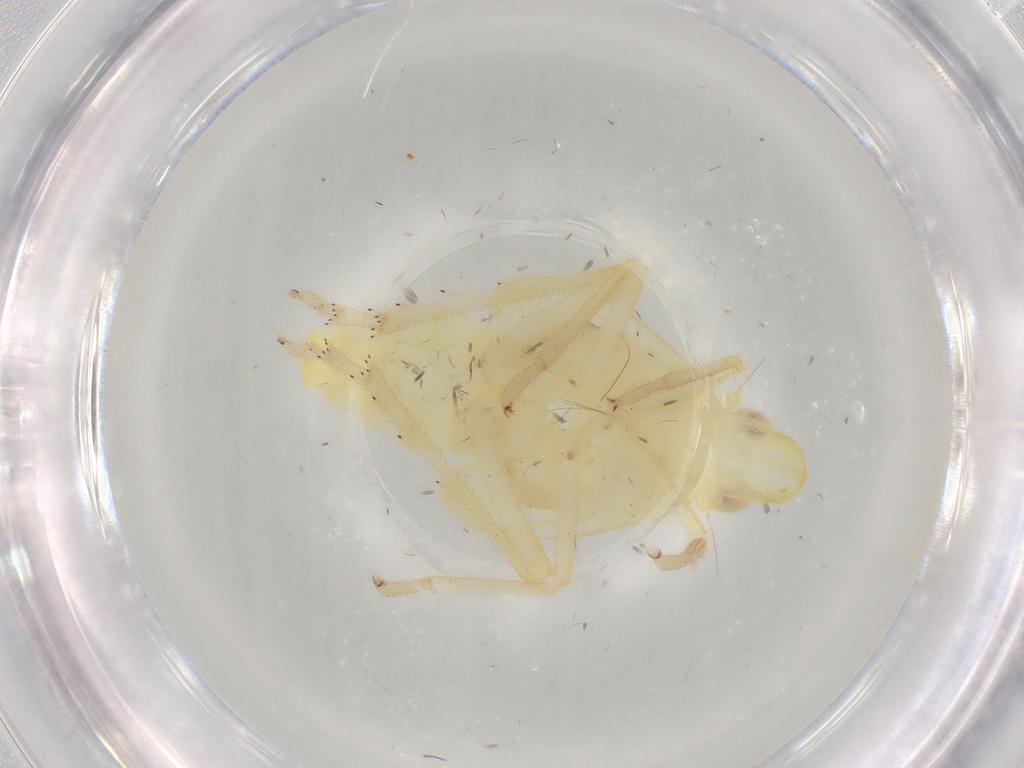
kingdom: Animalia
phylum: Arthropoda
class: Insecta
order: Hemiptera
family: Fulgoroidea_incertae_sedis
